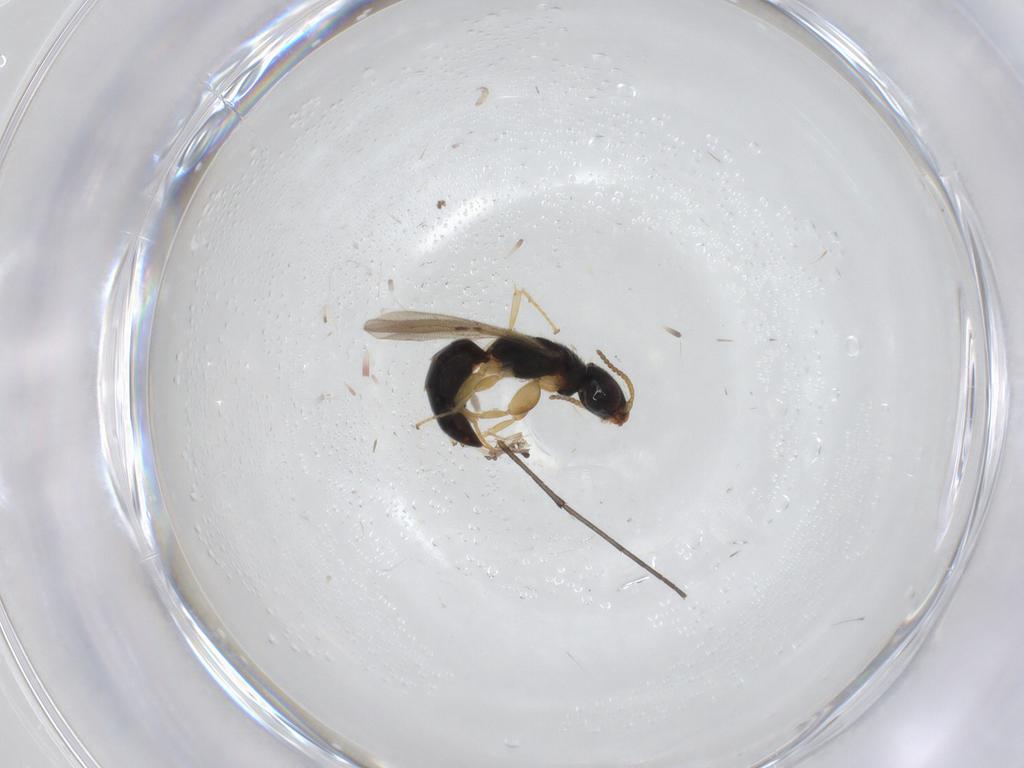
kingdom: Animalia
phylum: Arthropoda
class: Insecta
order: Hymenoptera
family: Bethylidae
